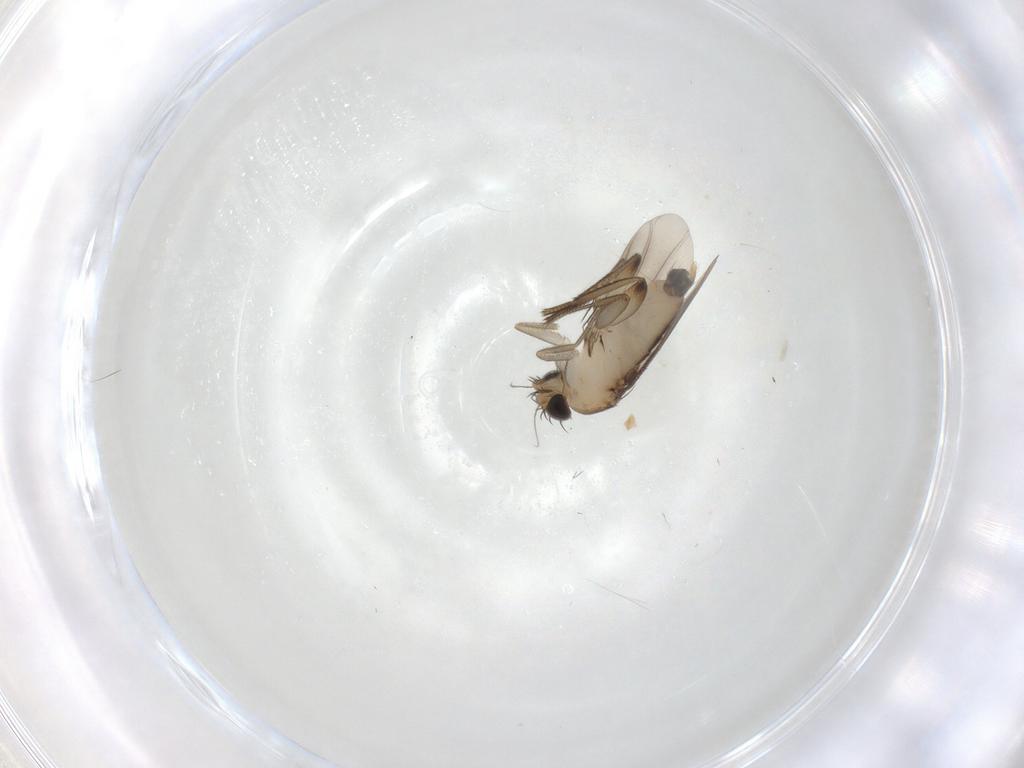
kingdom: Animalia
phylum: Arthropoda
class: Insecta
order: Diptera
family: Phoridae
